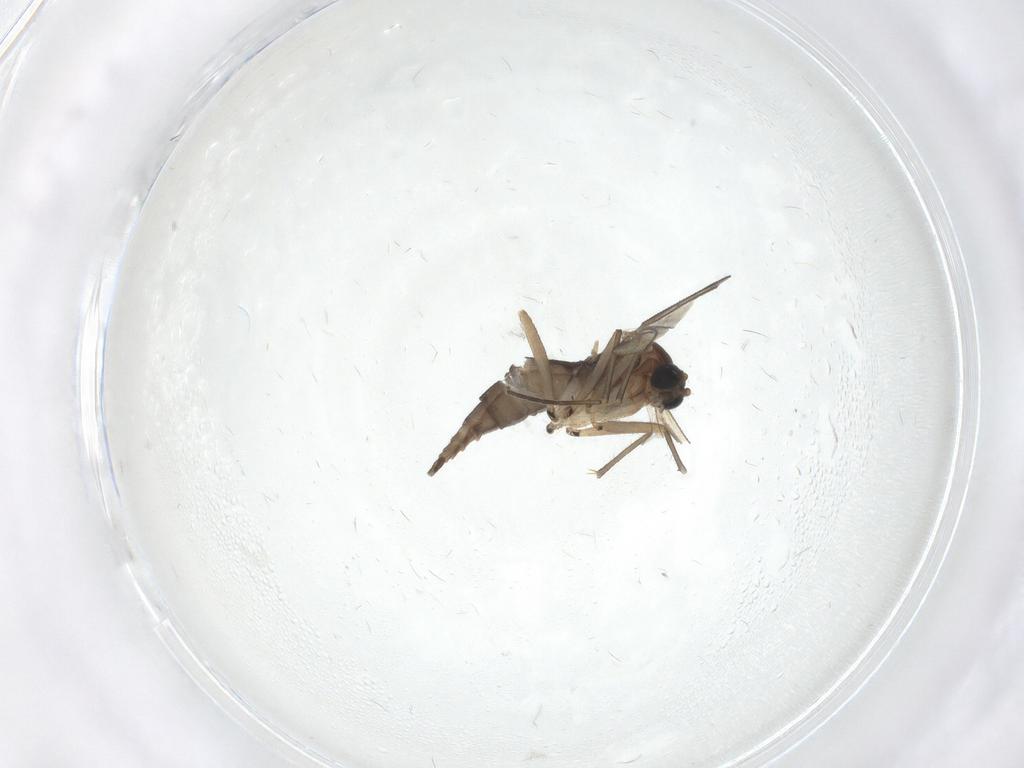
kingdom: Animalia
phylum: Arthropoda
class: Insecta
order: Diptera
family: Phoridae
